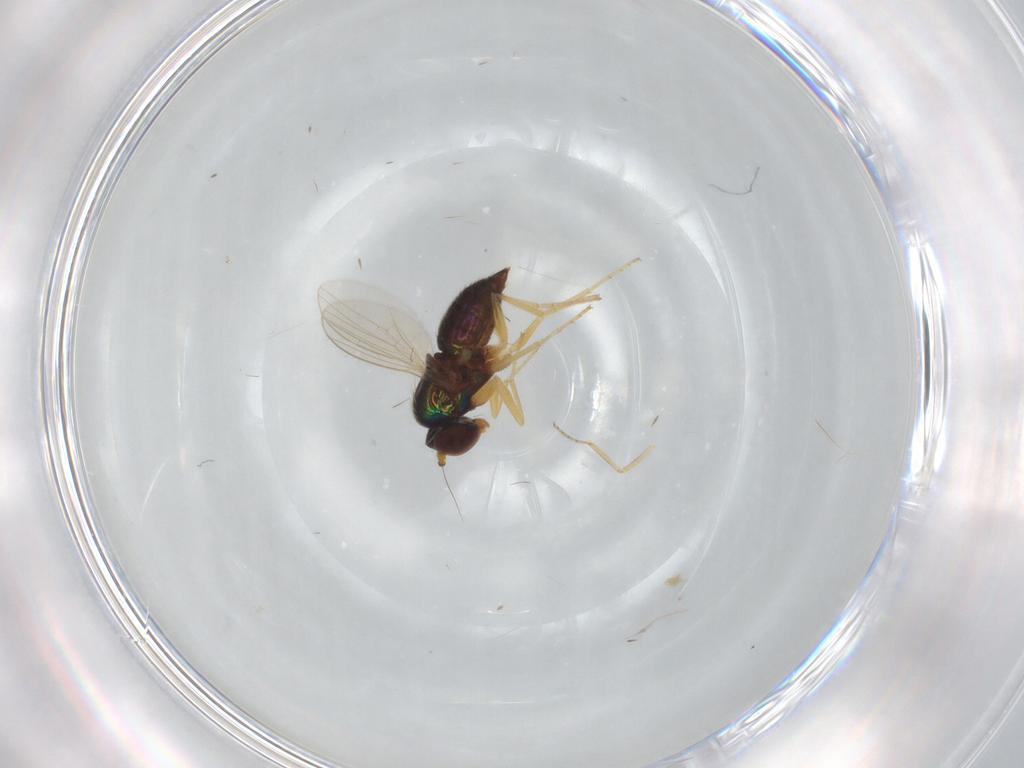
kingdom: Animalia
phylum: Arthropoda
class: Insecta
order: Diptera
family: Dolichopodidae
